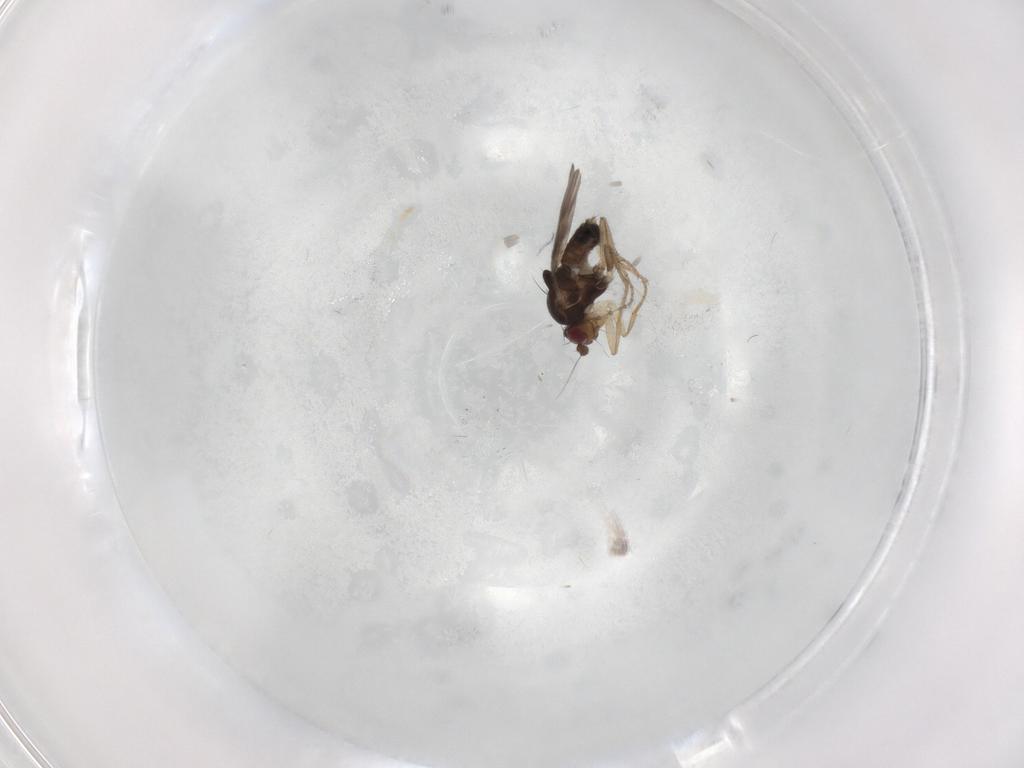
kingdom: Animalia
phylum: Arthropoda
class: Insecta
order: Diptera
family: Sphaeroceridae
